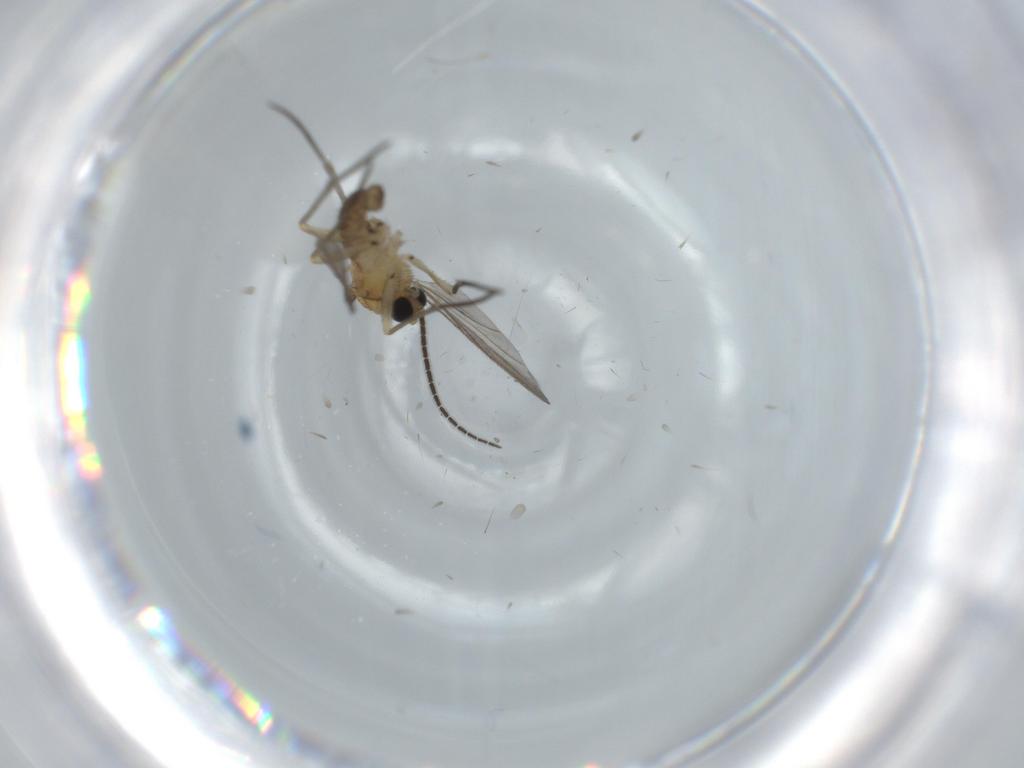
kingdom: Animalia
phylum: Arthropoda
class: Insecta
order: Diptera
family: Sciaridae
